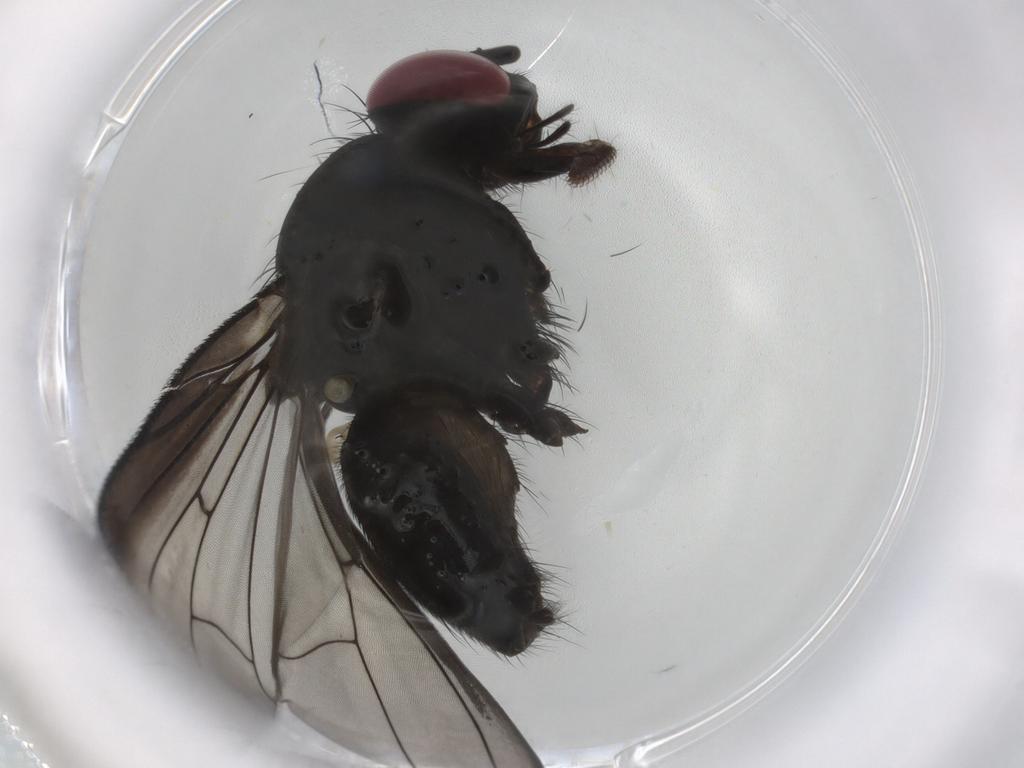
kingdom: Animalia
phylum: Arthropoda
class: Insecta
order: Diptera
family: Fannia
